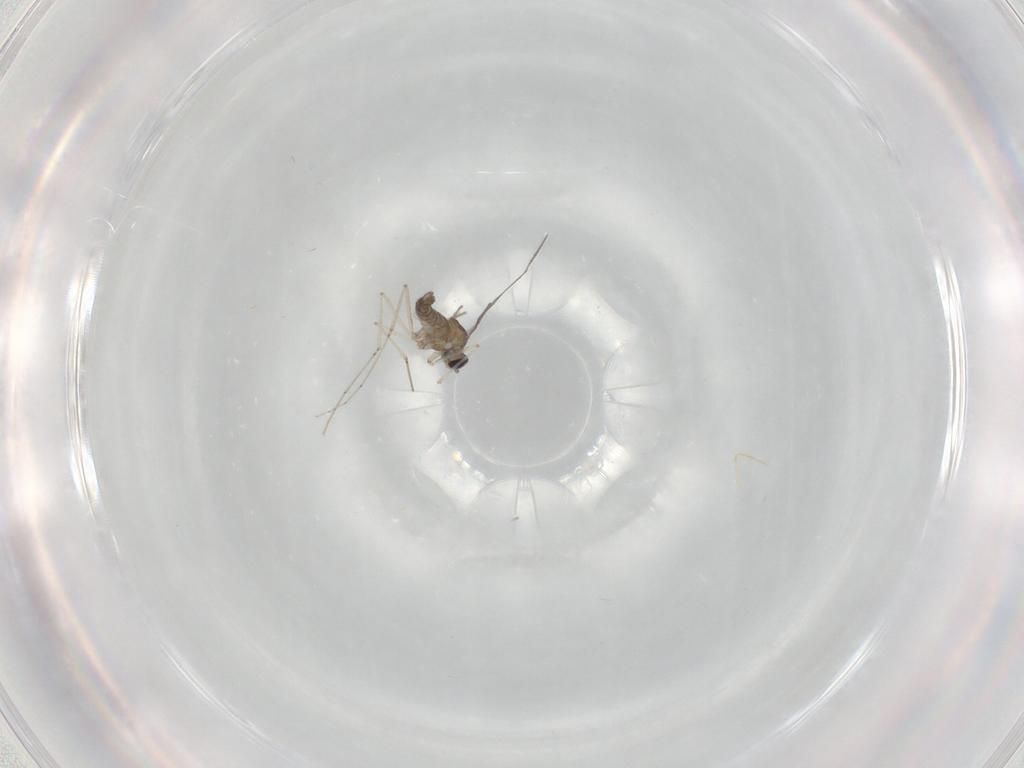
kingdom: Animalia
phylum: Arthropoda
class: Insecta
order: Diptera
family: Cecidomyiidae
